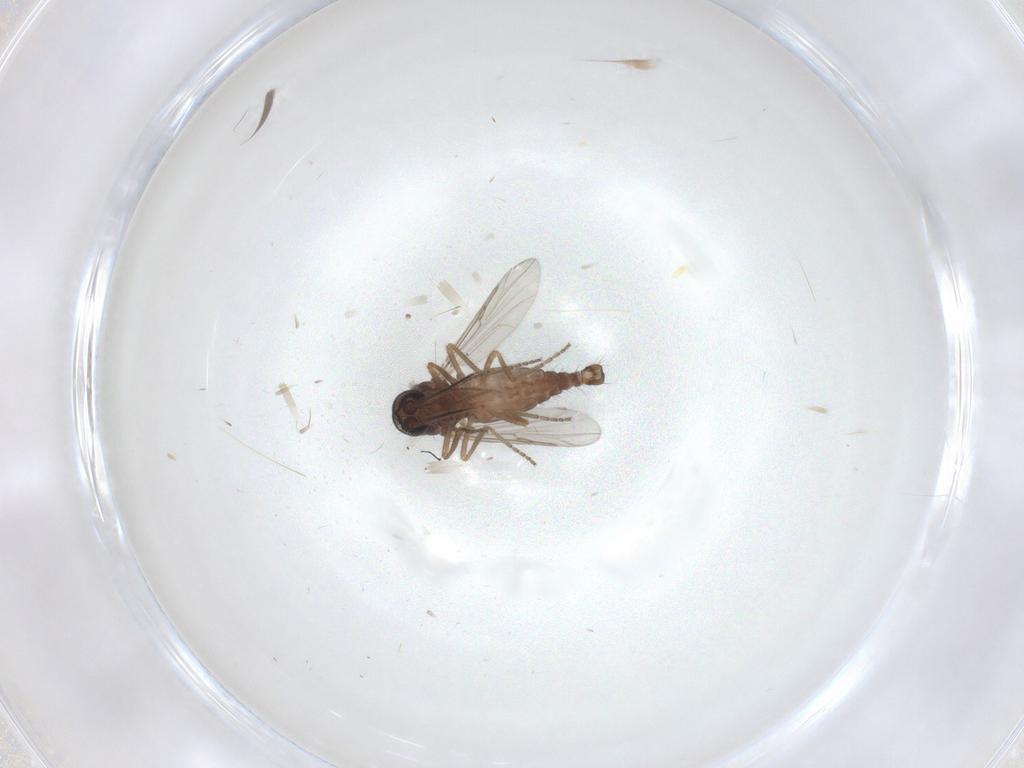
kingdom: Animalia
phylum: Arthropoda
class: Insecta
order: Diptera
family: Ceratopogonidae
